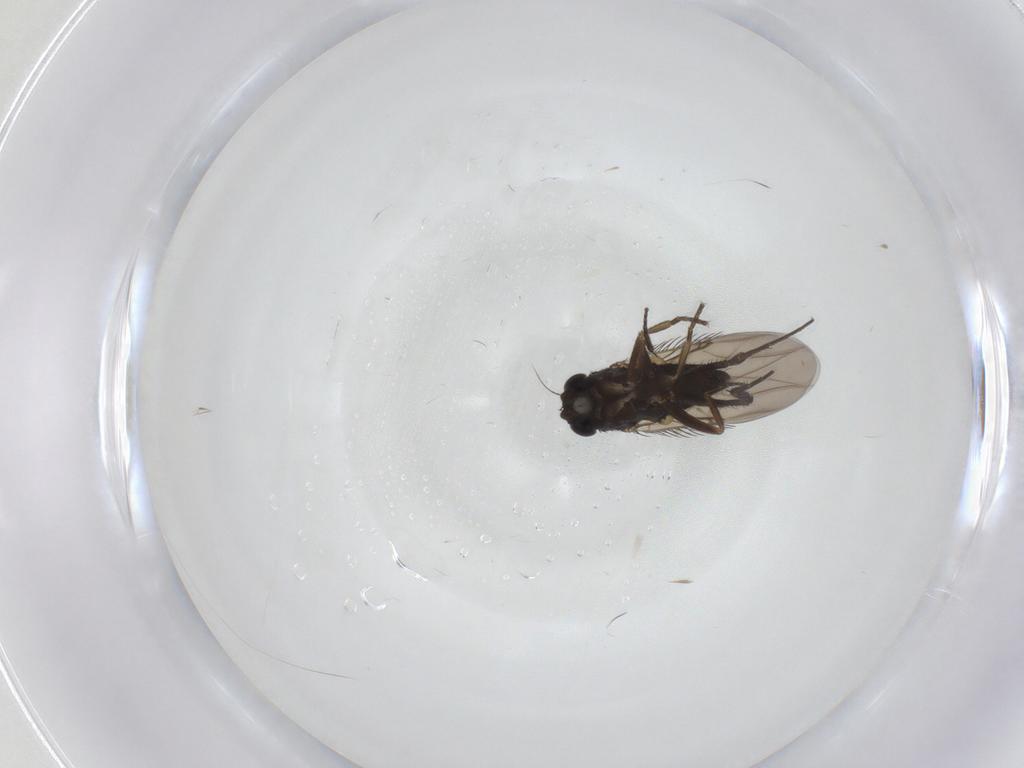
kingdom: Animalia
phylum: Arthropoda
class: Insecta
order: Diptera
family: Phoridae
